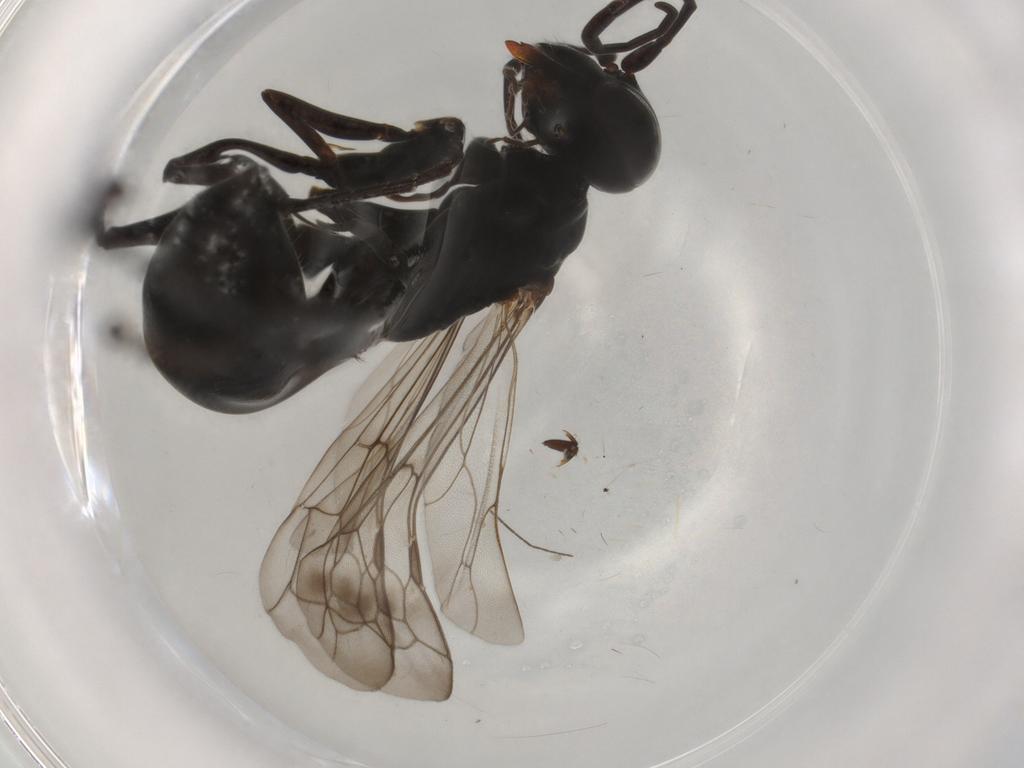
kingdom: Animalia
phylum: Arthropoda
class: Insecta
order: Hymenoptera
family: Pompilidae
